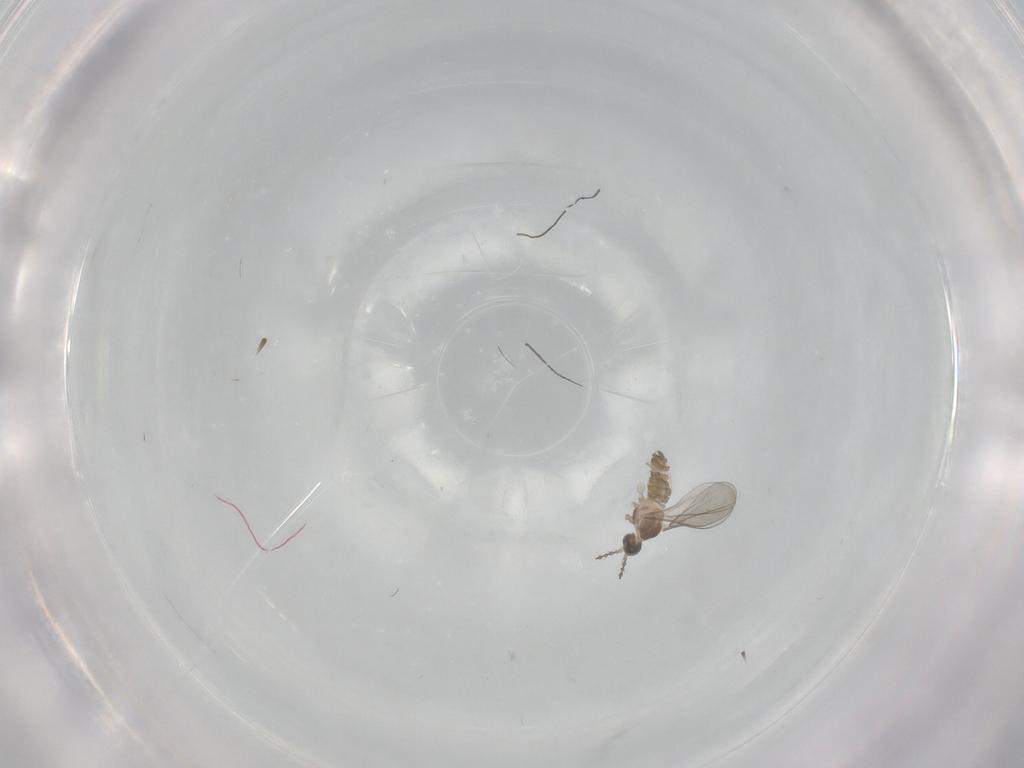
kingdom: Animalia
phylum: Arthropoda
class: Insecta
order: Diptera
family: Cecidomyiidae
